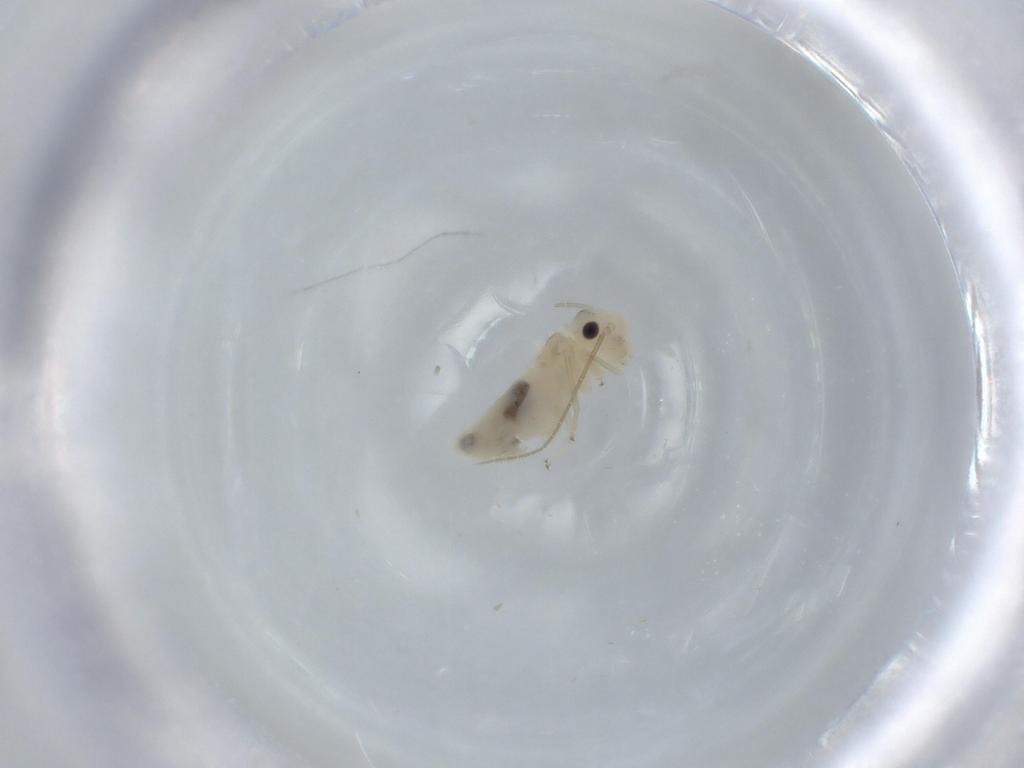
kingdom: Animalia
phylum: Arthropoda
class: Insecta
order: Psocodea
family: Caeciliusidae
